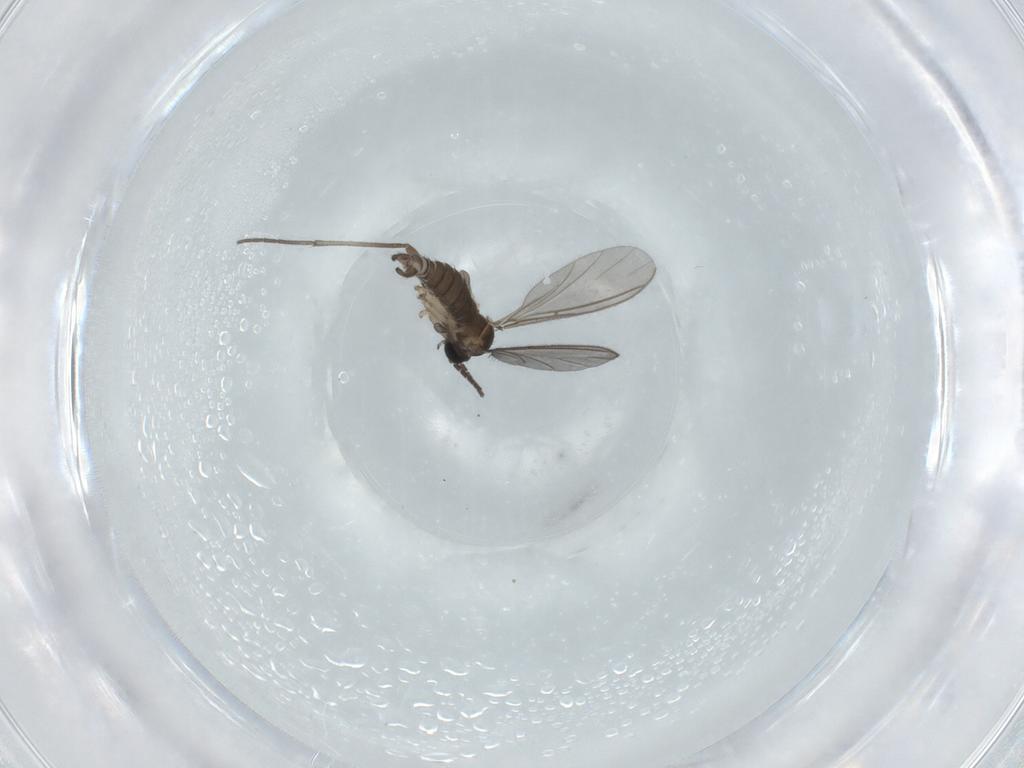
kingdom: Animalia
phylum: Arthropoda
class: Insecta
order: Diptera
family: Sciaridae
